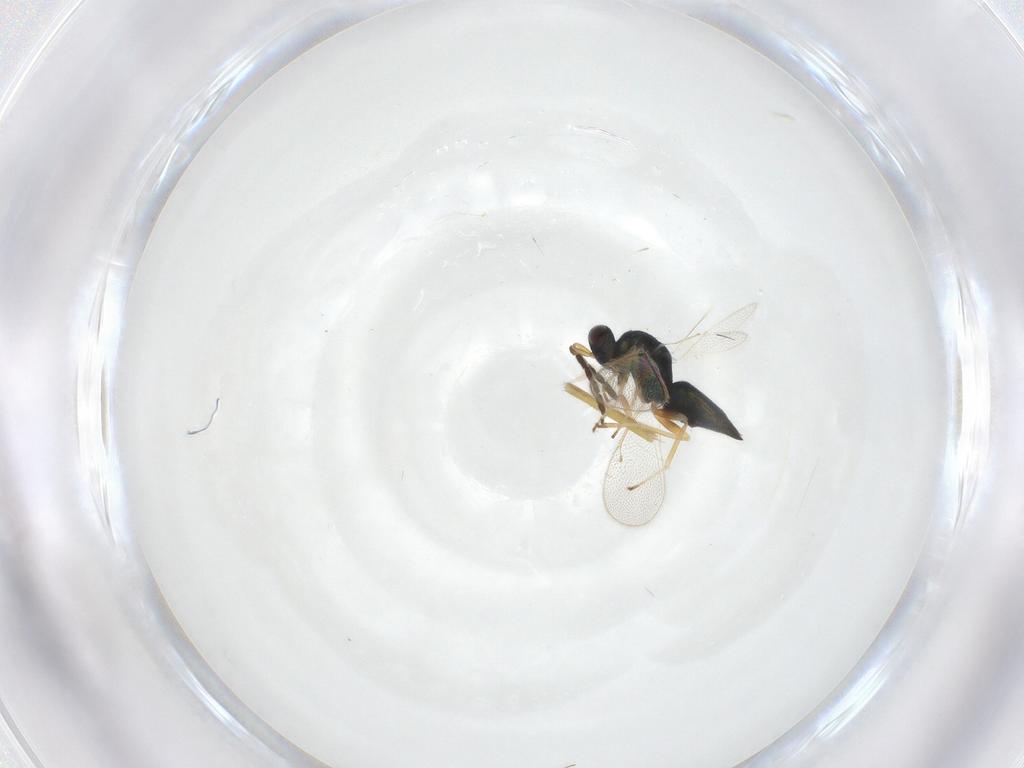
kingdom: Animalia
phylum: Arthropoda
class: Insecta
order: Hymenoptera
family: Eulophidae
